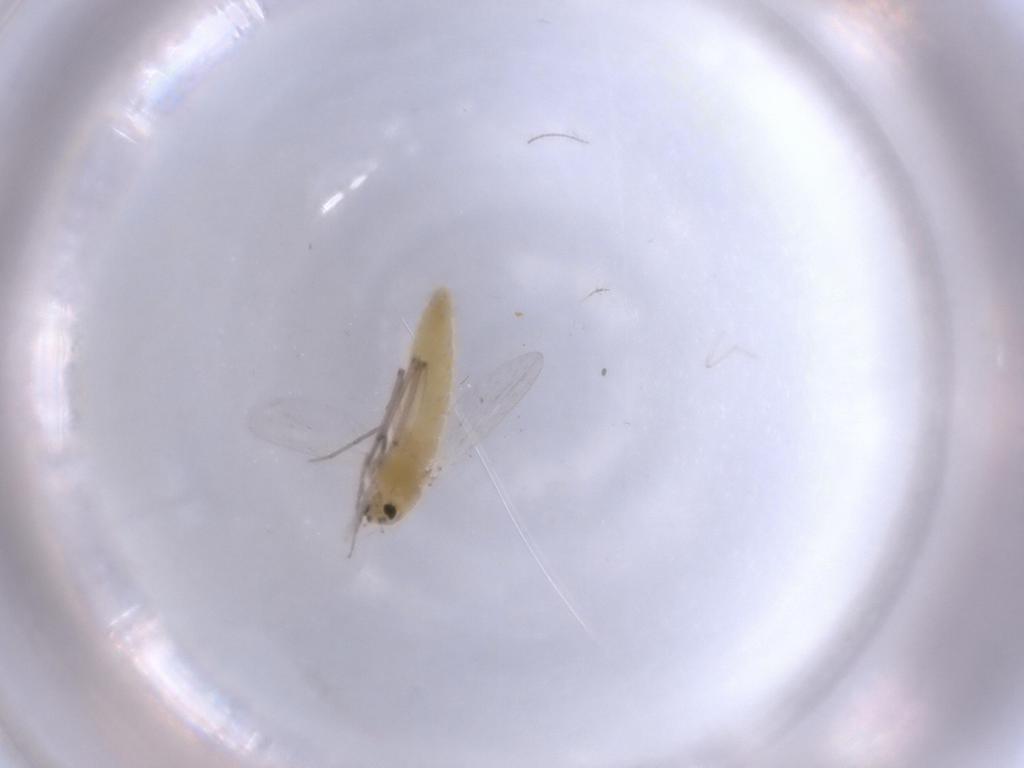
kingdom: Animalia
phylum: Arthropoda
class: Insecta
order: Diptera
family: Chironomidae
